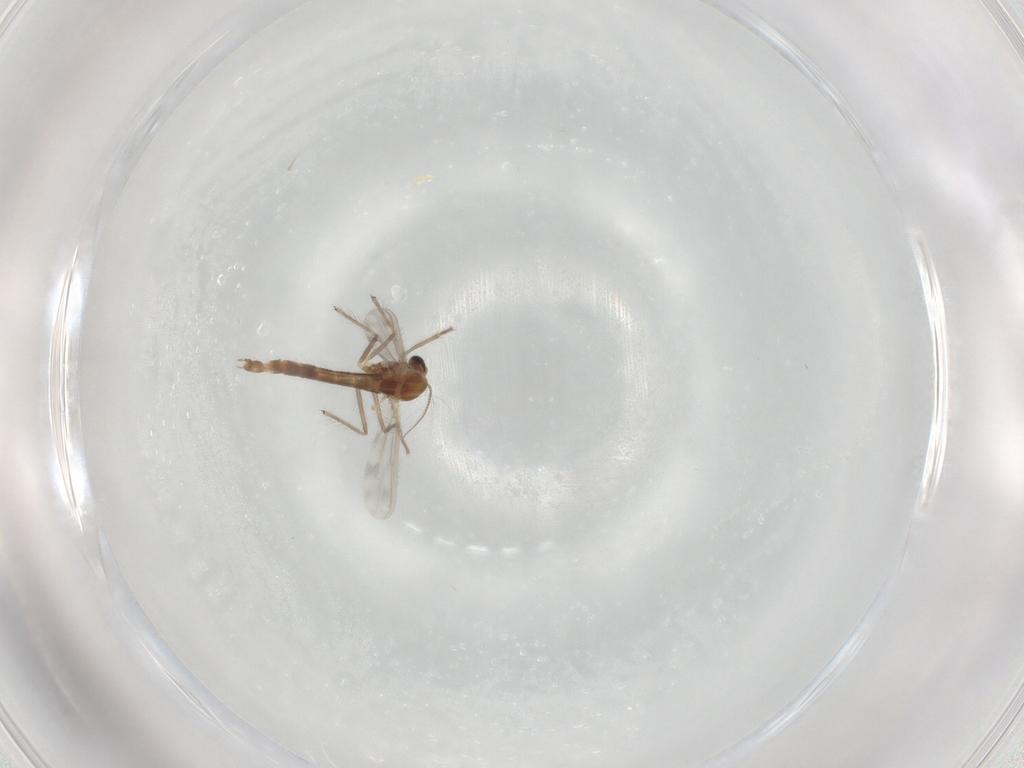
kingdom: Animalia
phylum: Arthropoda
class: Insecta
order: Diptera
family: Chironomidae
